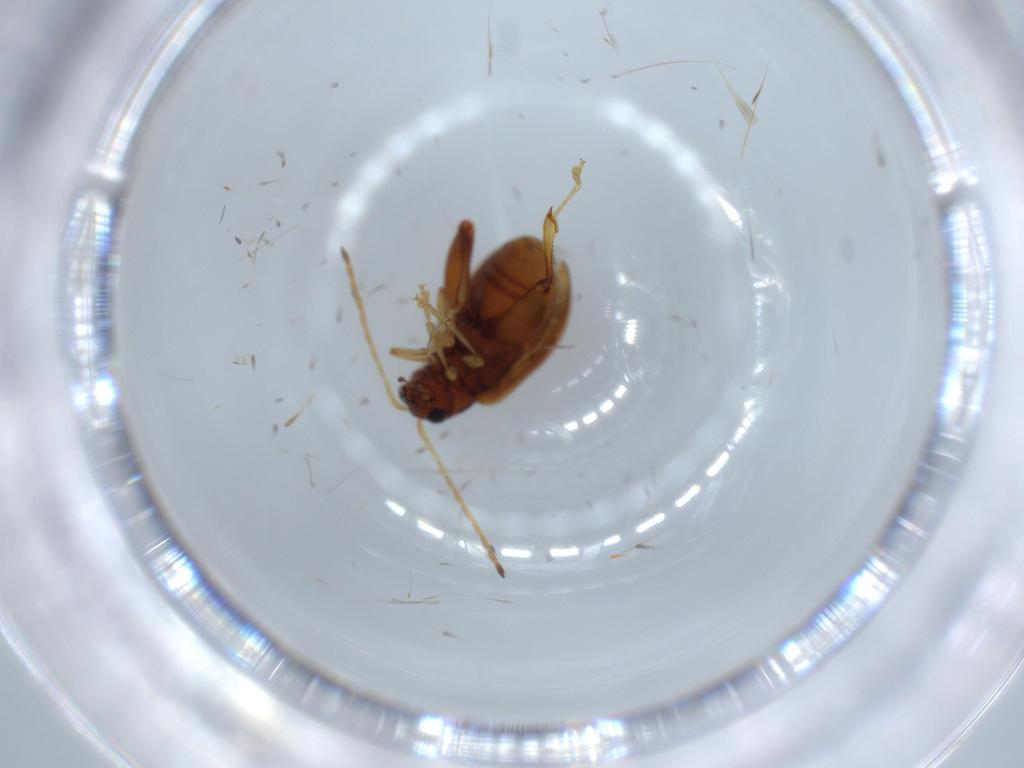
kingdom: Animalia
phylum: Arthropoda
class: Insecta
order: Coleoptera
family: Chrysomelidae
